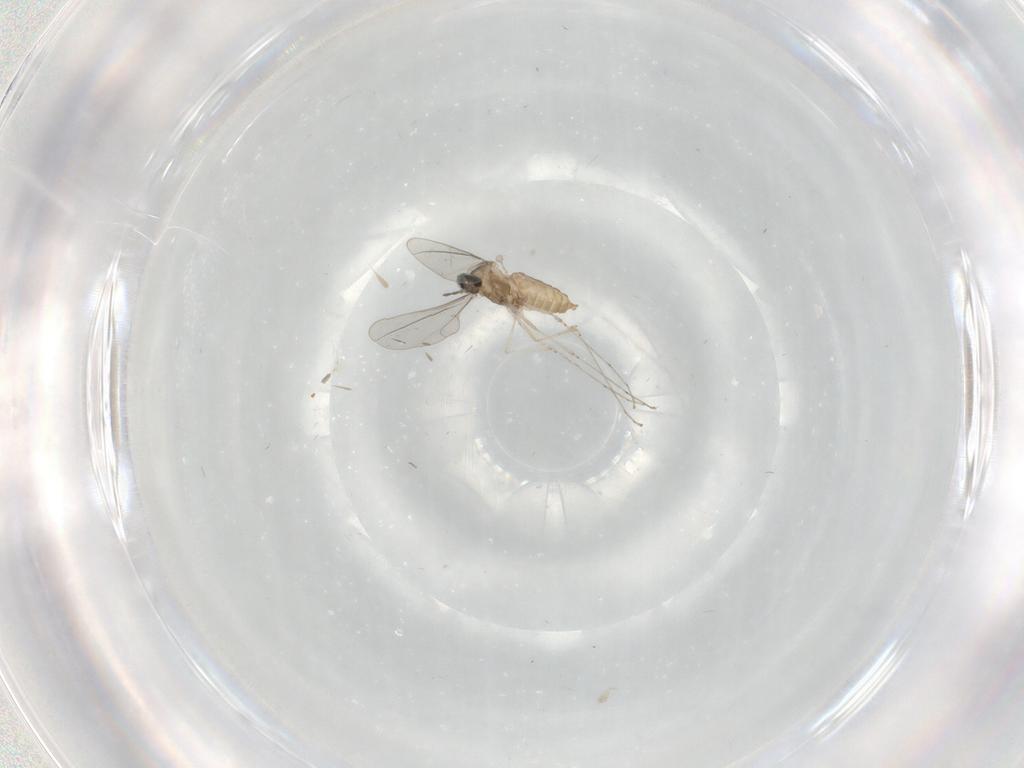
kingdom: Animalia
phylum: Arthropoda
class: Insecta
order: Diptera
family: Cecidomyiidae
